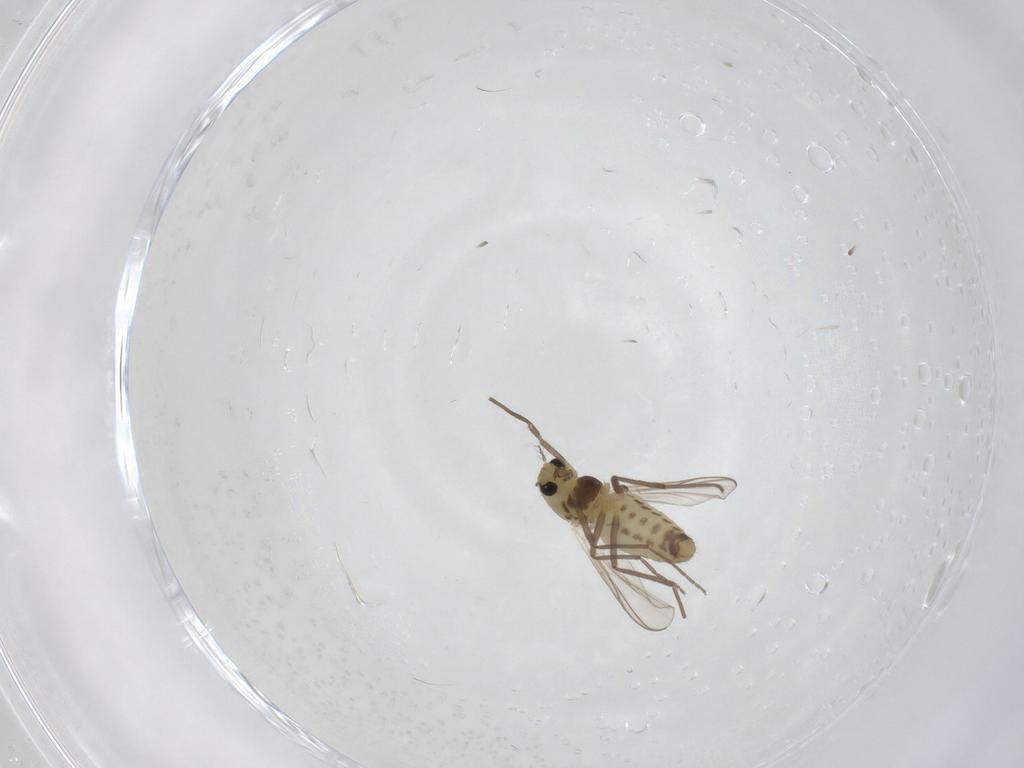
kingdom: Animalia
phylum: Arthropoda
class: Insecta
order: Diptera
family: Chironomidae
